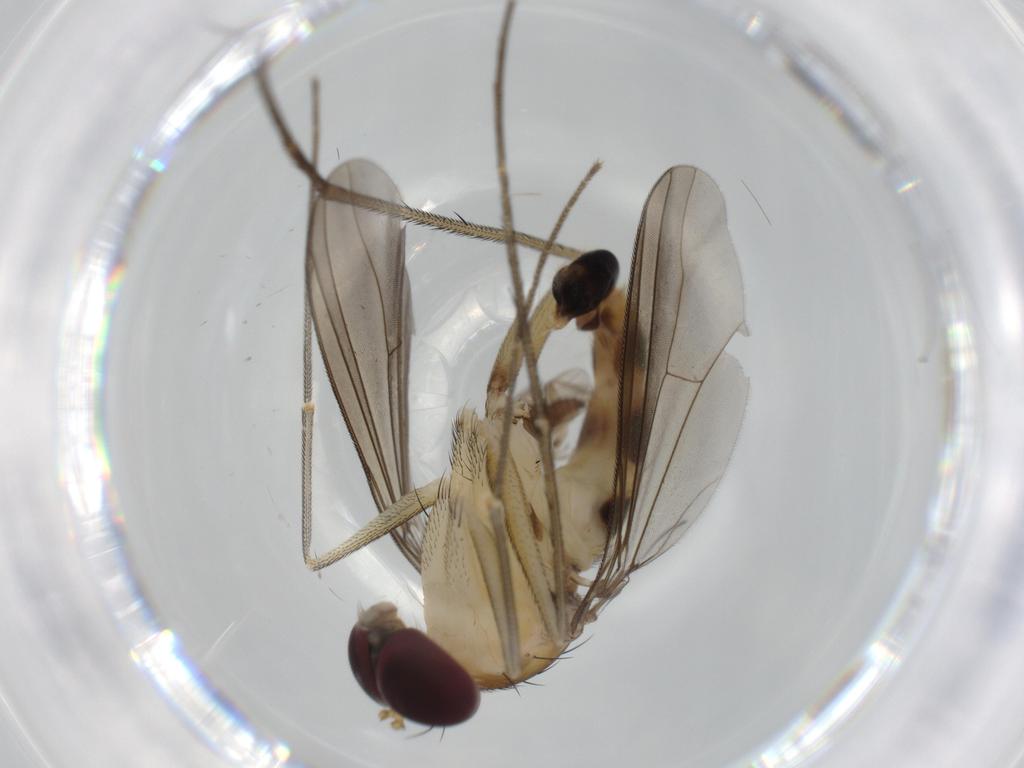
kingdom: Animalia
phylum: Arthropoda
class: Insecta
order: Diptera
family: Dolichopodidae
